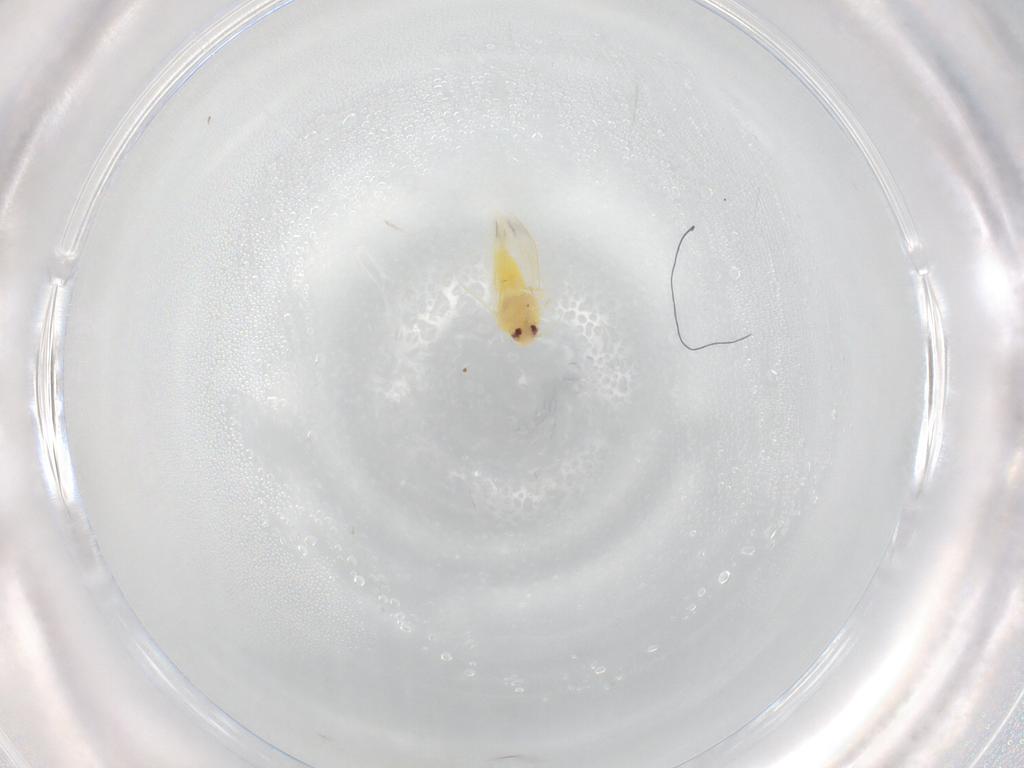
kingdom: Animalia
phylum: Arthropoda
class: Insecta
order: Hemiptera
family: Aleyrodidae
